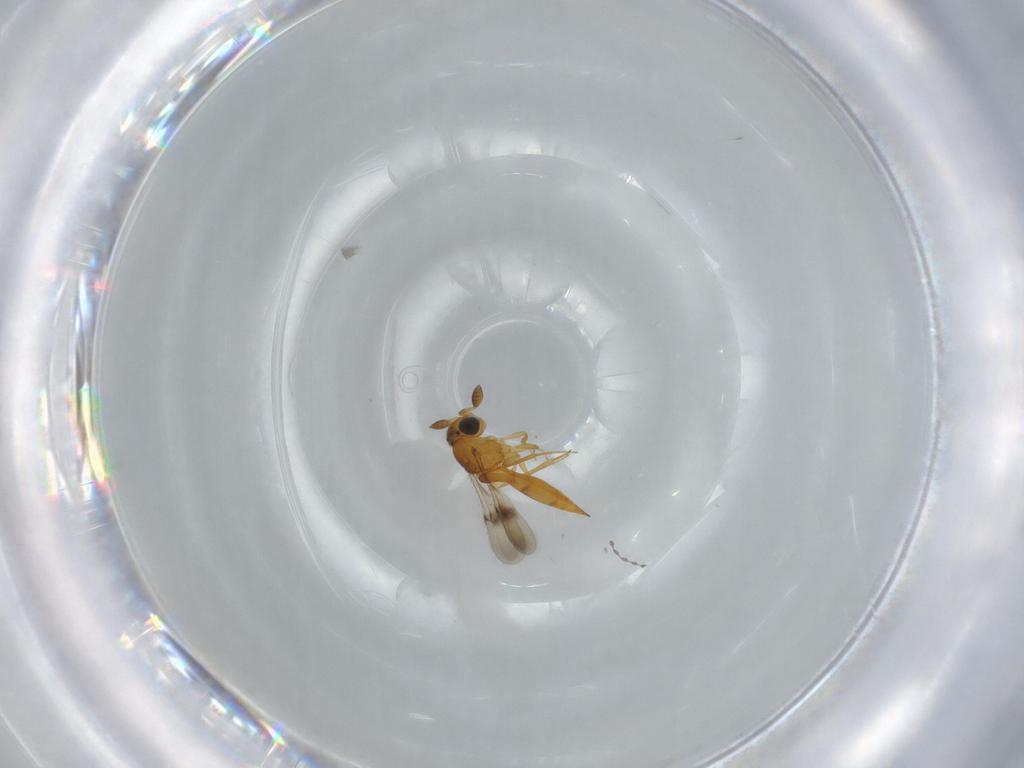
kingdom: Animalia
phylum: Arthropoda
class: Insecta
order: Hymenoptera
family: Scelionidae
